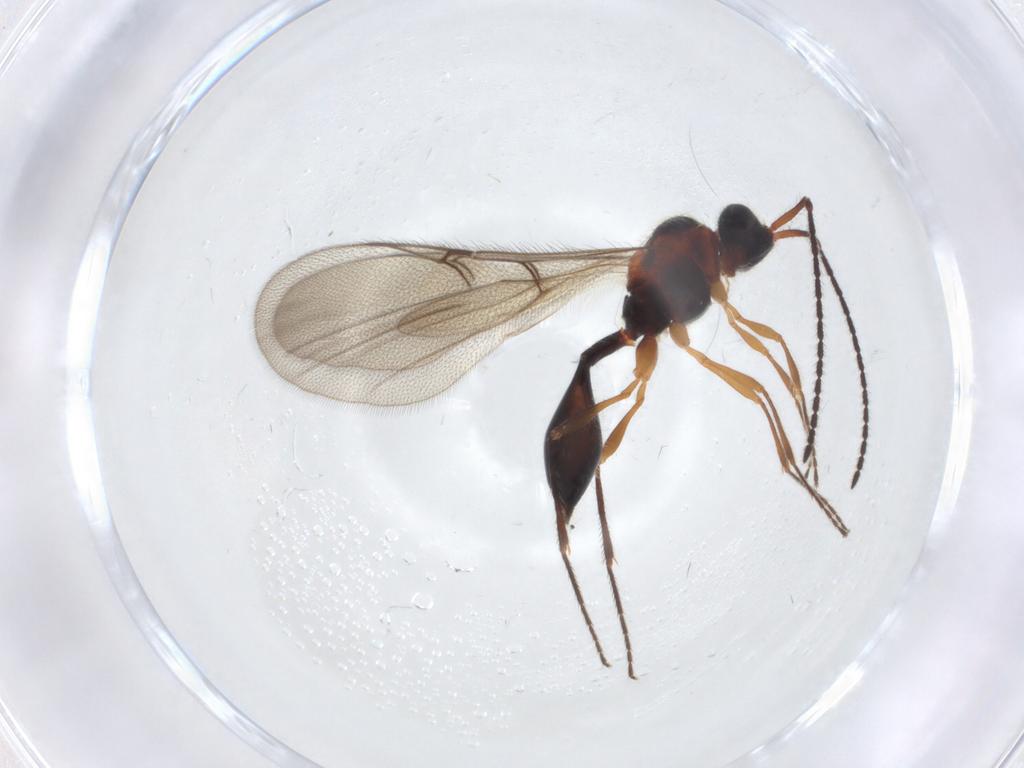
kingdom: Animalia
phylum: Arthropoda
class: Insecta
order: Hymenoptera
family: Diapriidae
